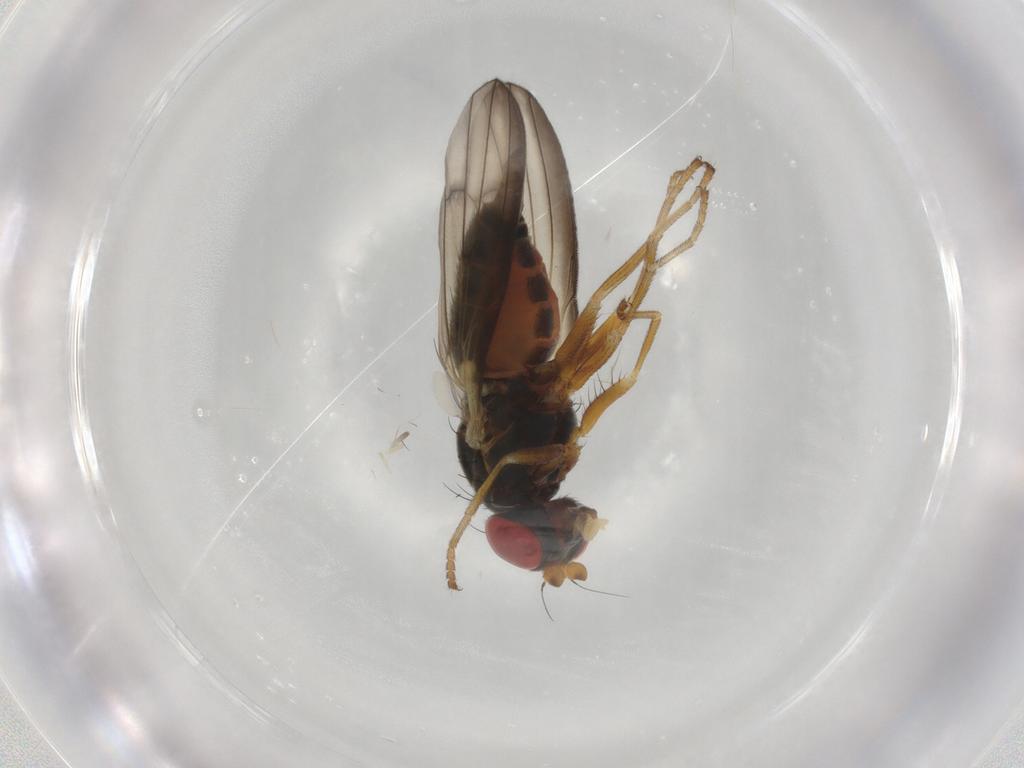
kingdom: Animalia
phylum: Arthropoda
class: Insecta
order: Diptera
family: Chamaemyiidae
